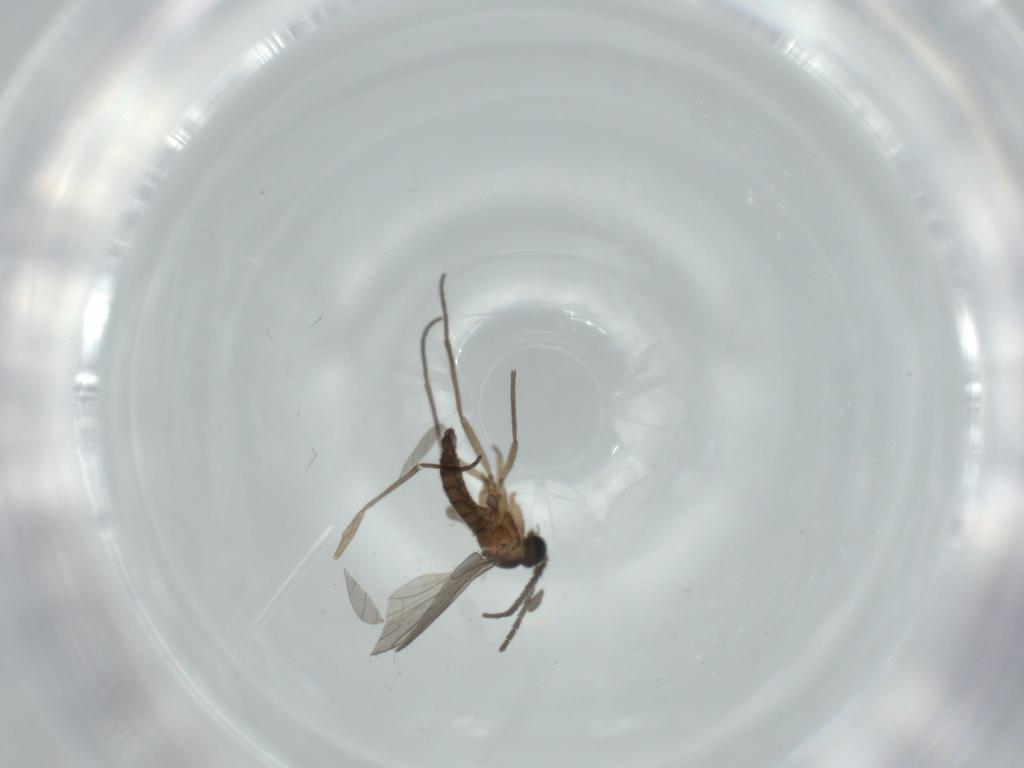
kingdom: Animalia
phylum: Arthropoda
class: Insecta
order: Diptera
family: Sciaridae
